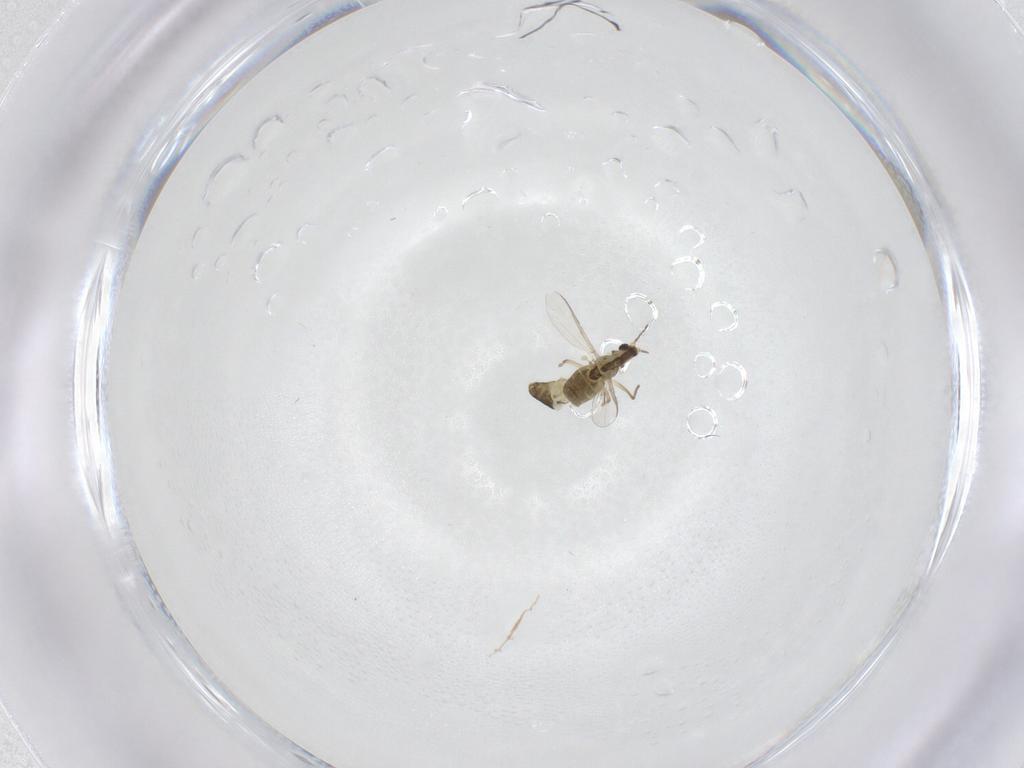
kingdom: Animalia
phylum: Arthropoda
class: Insecta
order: Diptera
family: Chironomidae
